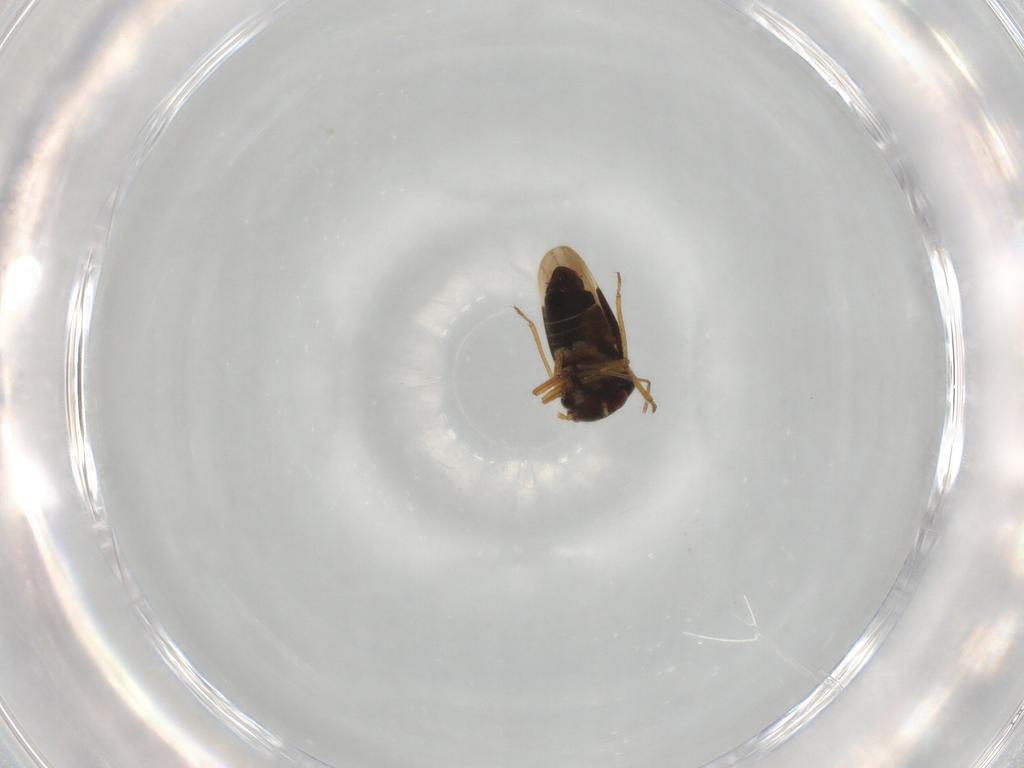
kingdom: Animalia
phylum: Arthropoda
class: Insecta
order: Hemiptera
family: Schizopteridae
